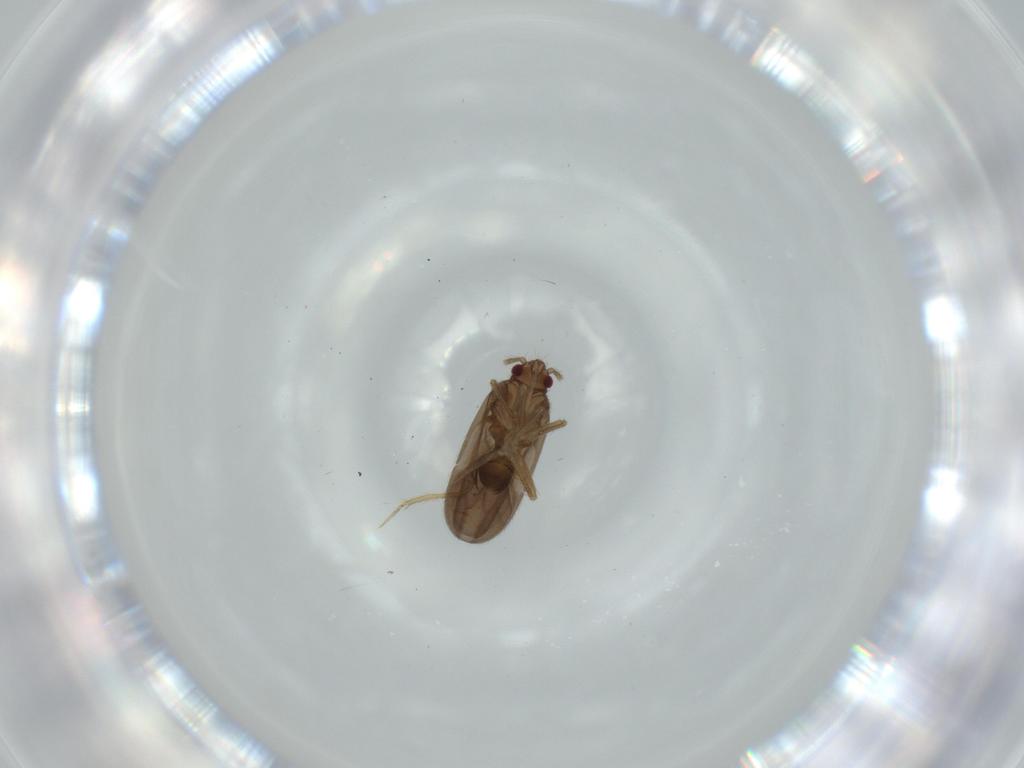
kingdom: Animalia
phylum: Arthropoda
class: Insecta
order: Hemiptera
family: Ceratocombidae
